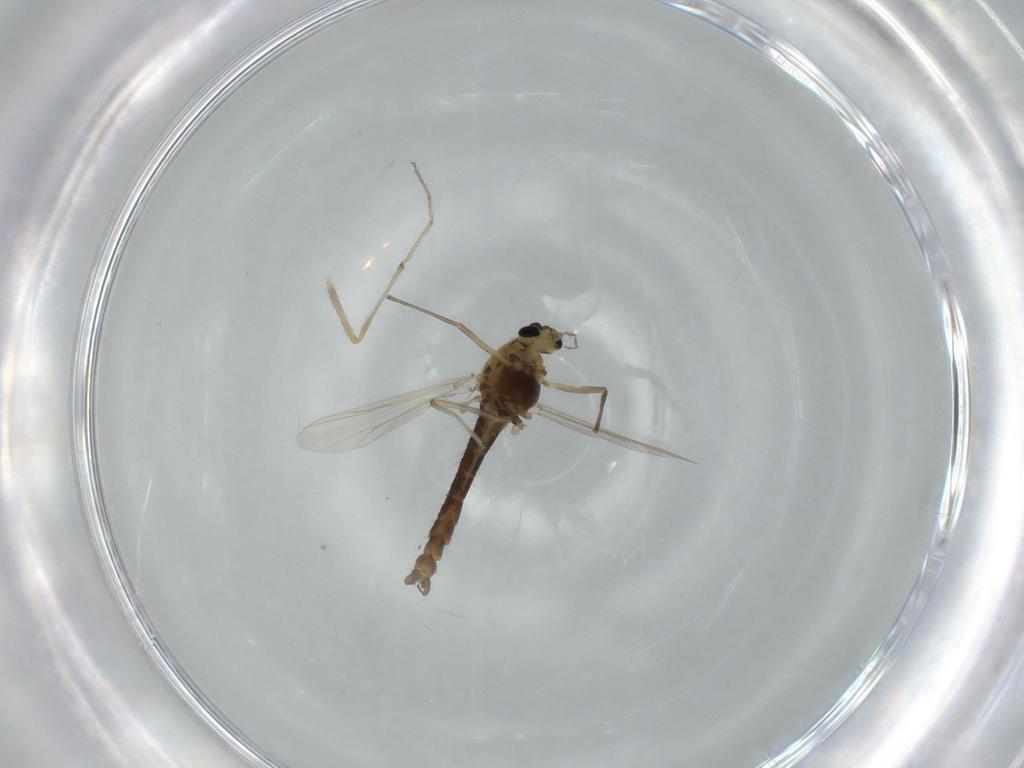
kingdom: Animalia
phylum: Arthropoda
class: Insecta
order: Diptera
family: Chironomidae
